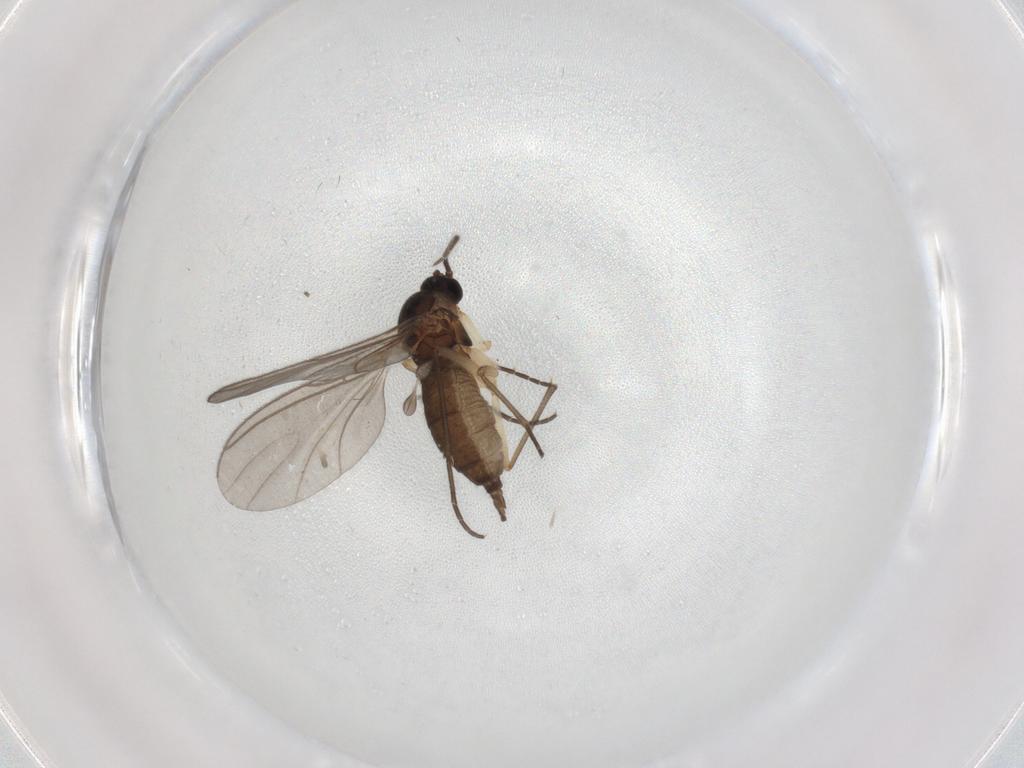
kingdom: Animalia
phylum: Arthropoda
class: Insecta
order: Diptera
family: Sciaridae
